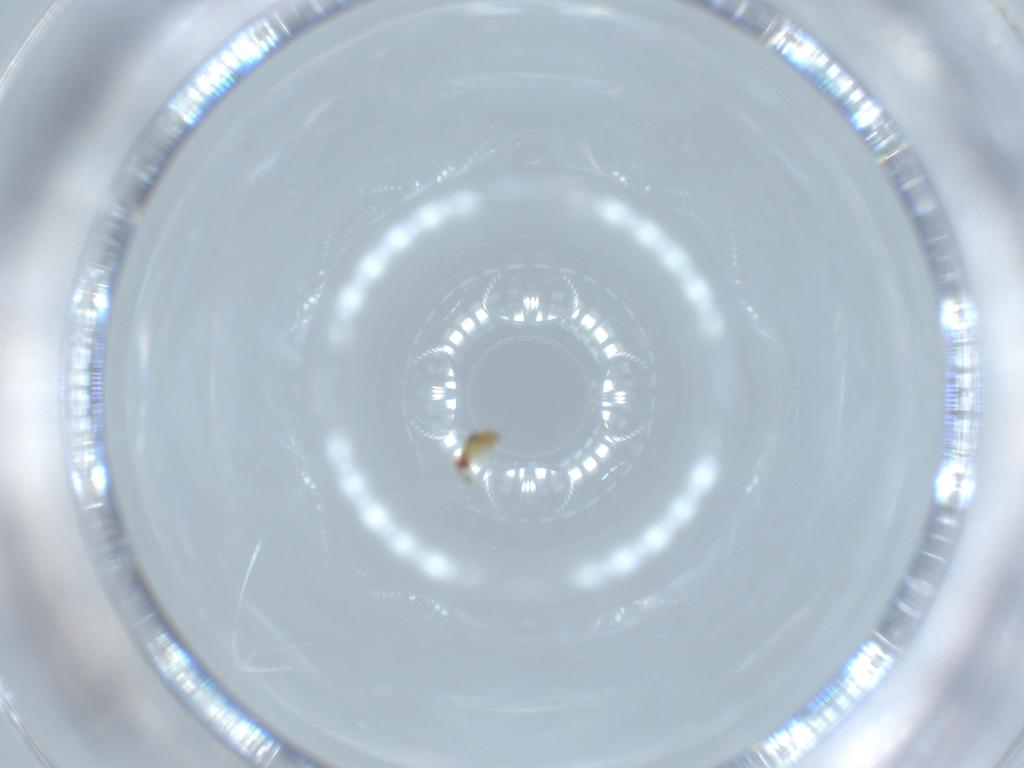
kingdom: Animalia
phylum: Arthropoda
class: Insecta
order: Hymenoptera
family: Trichogrammatidae
